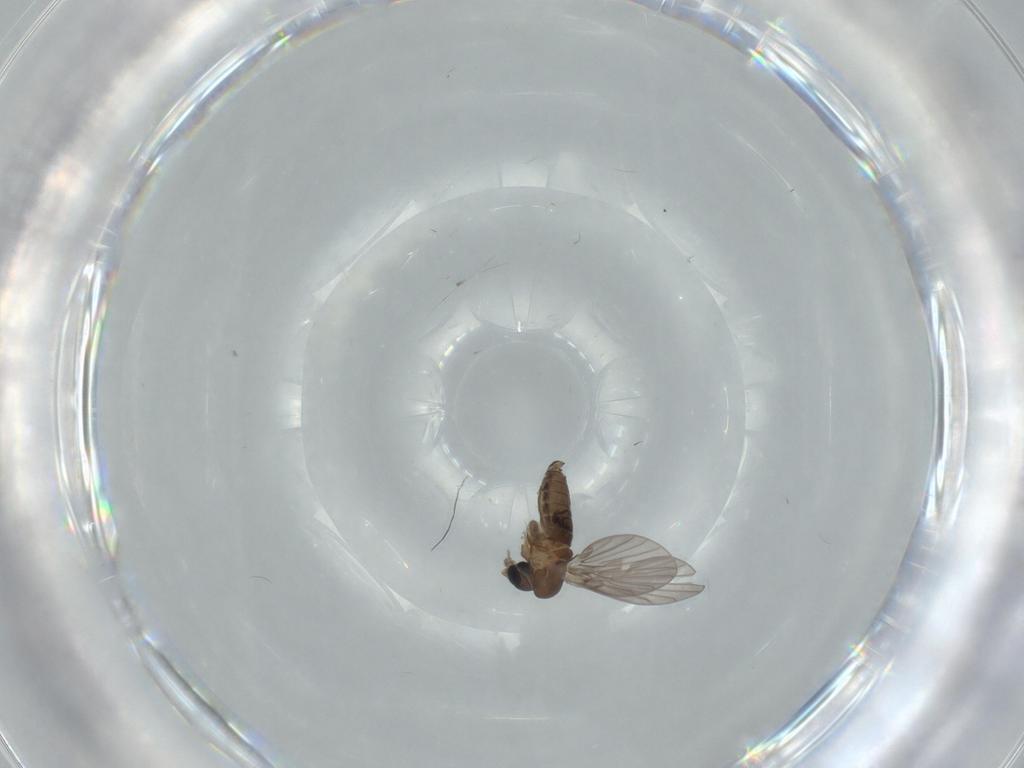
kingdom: Animalia
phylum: Arthropoda
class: Insecta
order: Diptera
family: Psychodidae
